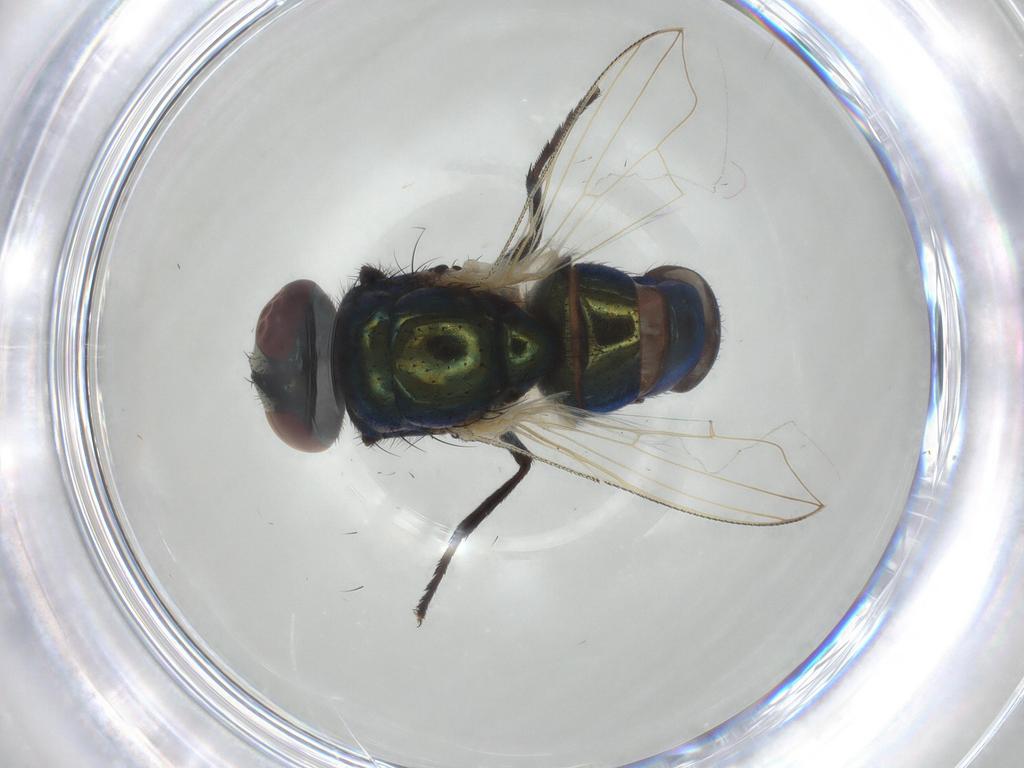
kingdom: Animalia
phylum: Arthropoda
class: Insecta
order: Diptera
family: Muscidae
